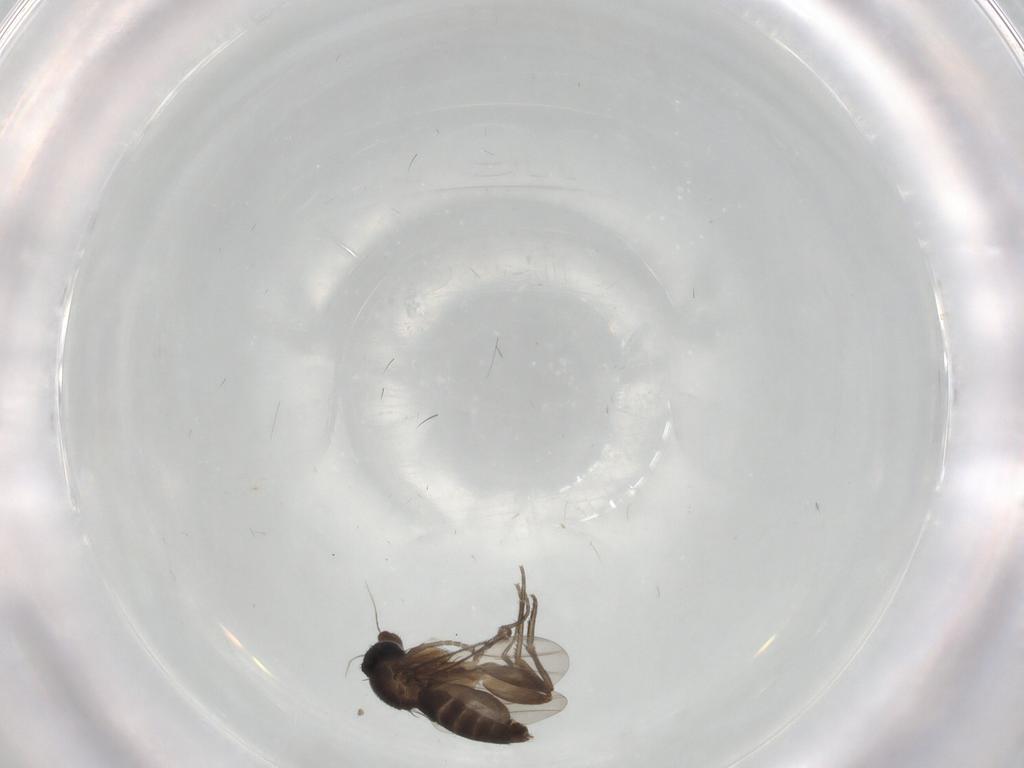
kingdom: Animalia
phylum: Arthropoda
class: Insecta
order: Diptera
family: Phoridae
